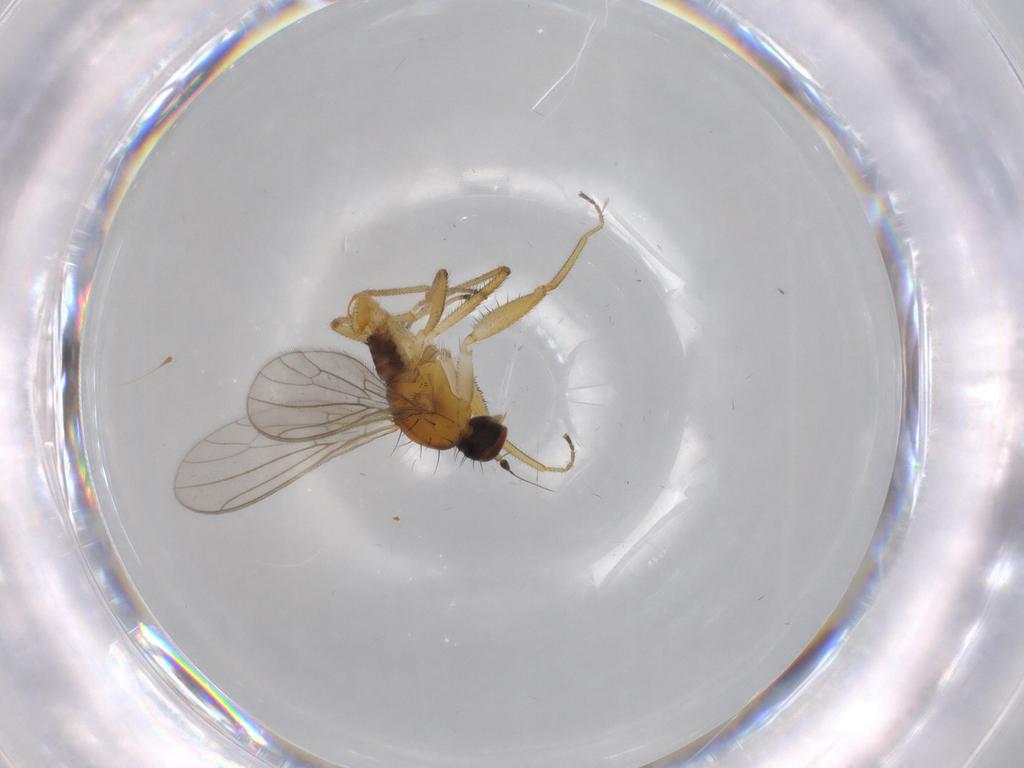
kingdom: Animalia
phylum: Arthropoda
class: Insecta
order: Diptera
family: Empididae
